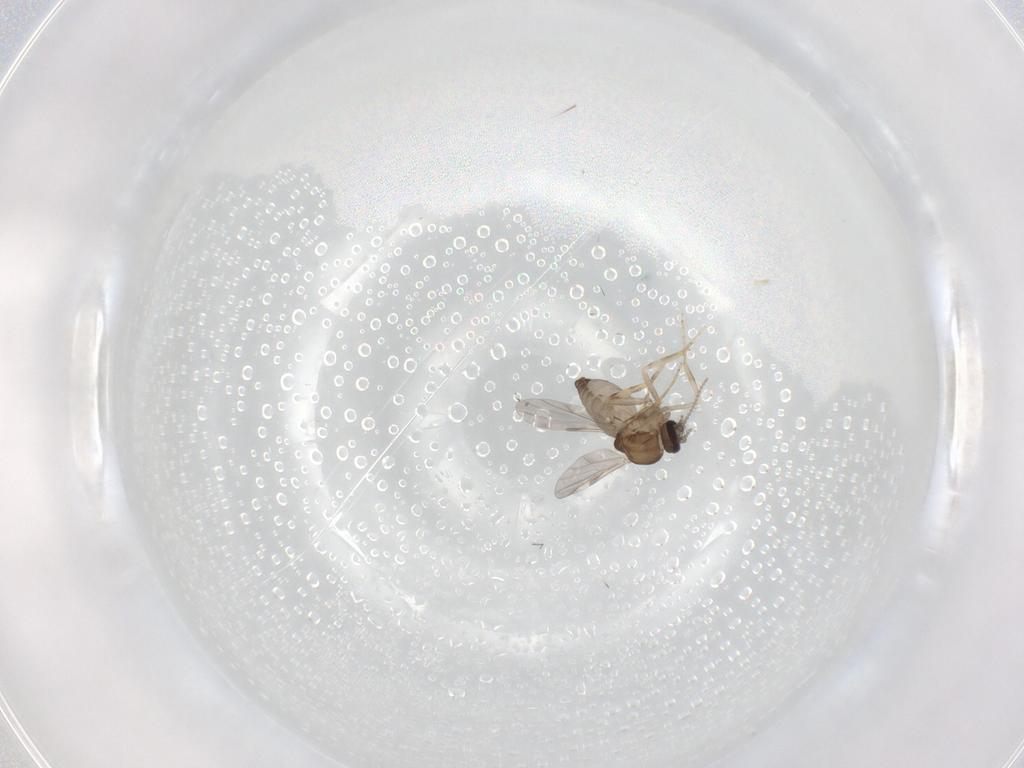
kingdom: Animalia
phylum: Arthropoda
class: Insecta
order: Diptera
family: Ceratopogonidae
